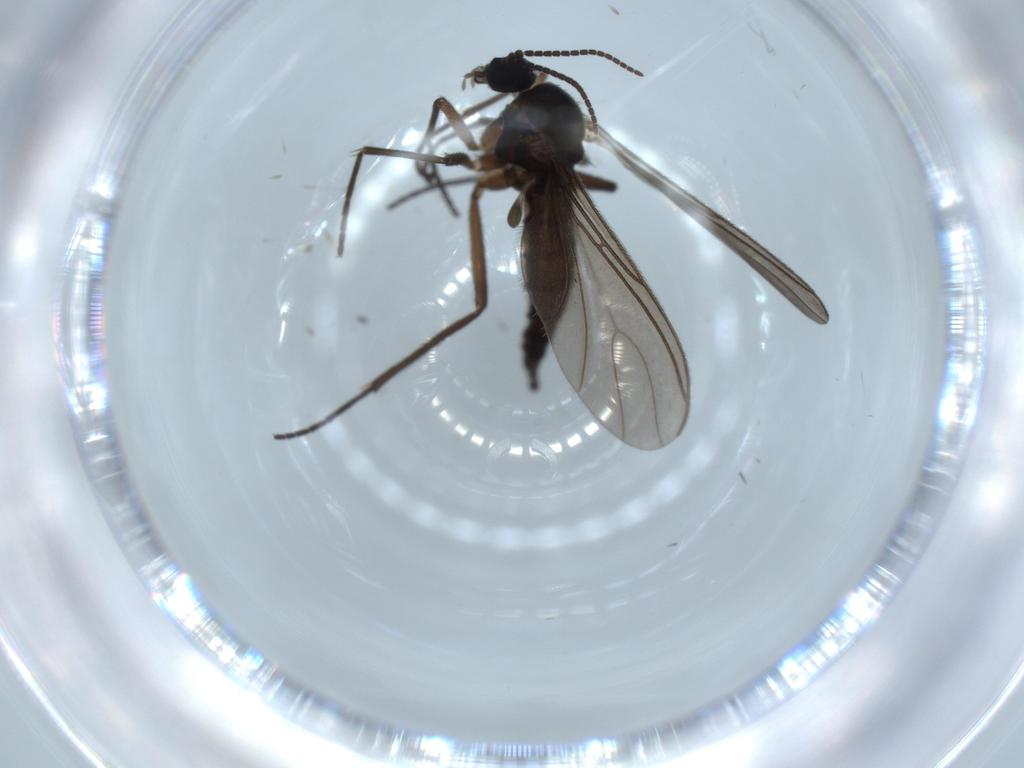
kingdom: Animalia
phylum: Arthropoda
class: Insecta
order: Diptera
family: Sciaridae
